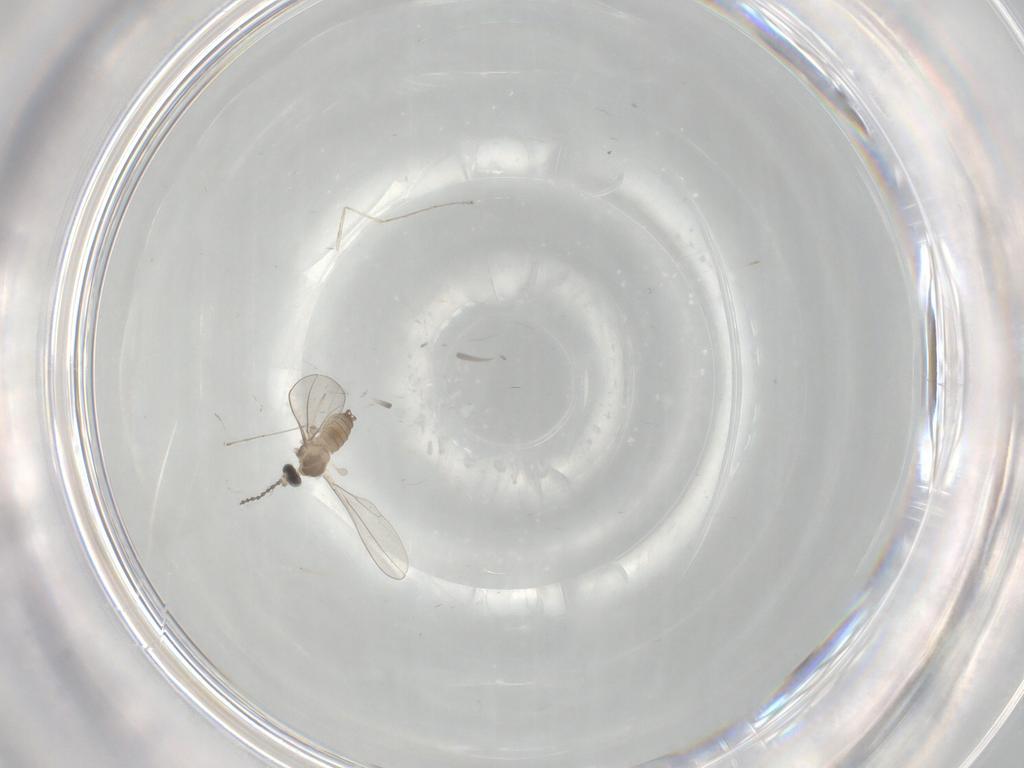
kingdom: Animalia
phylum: Arthropoda
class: Insecta
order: Diptera
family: Cecidomyiidae
